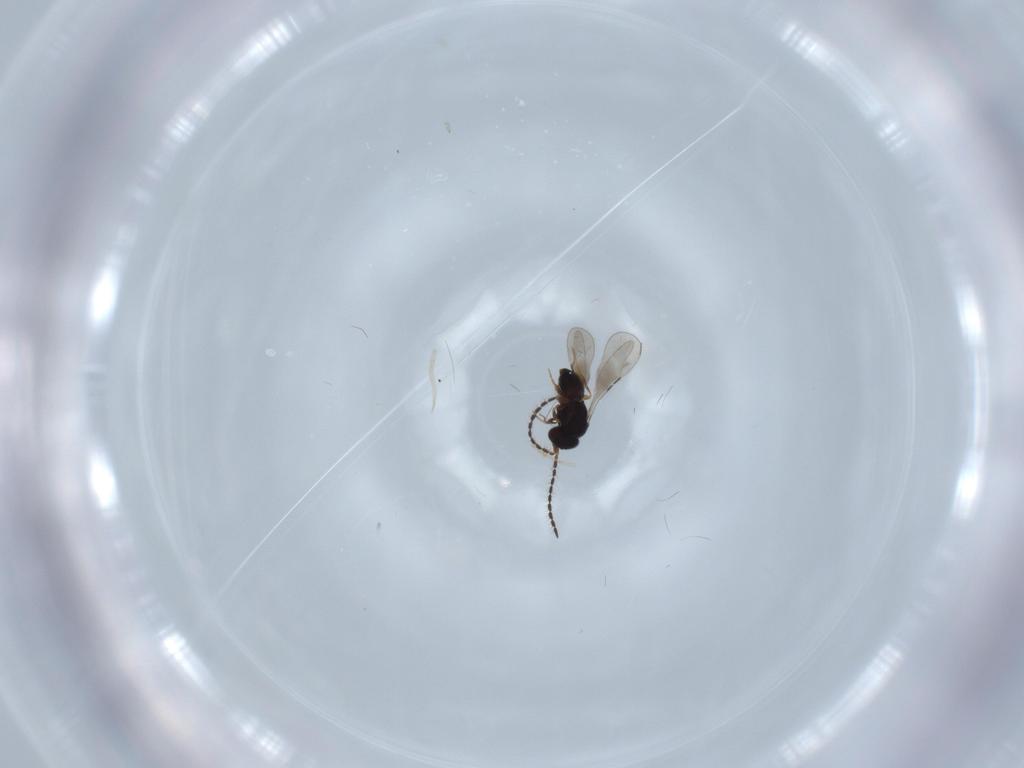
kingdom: Animalia
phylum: Arthropoda
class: Insecta
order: Hymenoptera
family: Ceraphronidae
